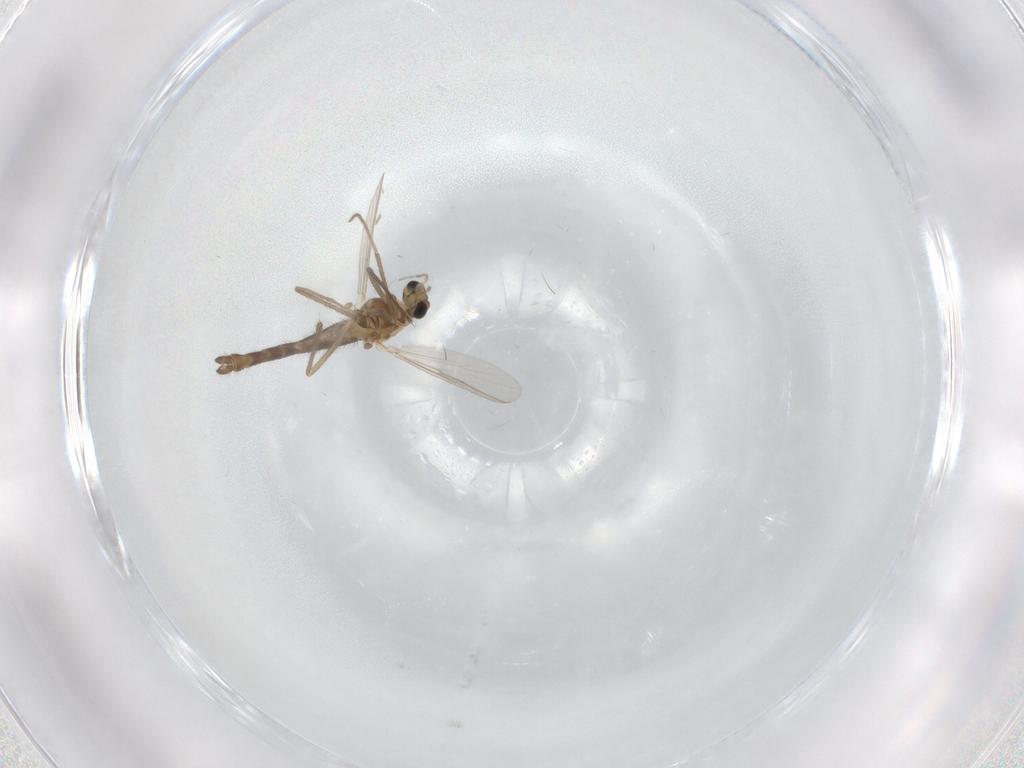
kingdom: Animalia
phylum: Arthropoda
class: Insecta
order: Diptera
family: Chironomidae
